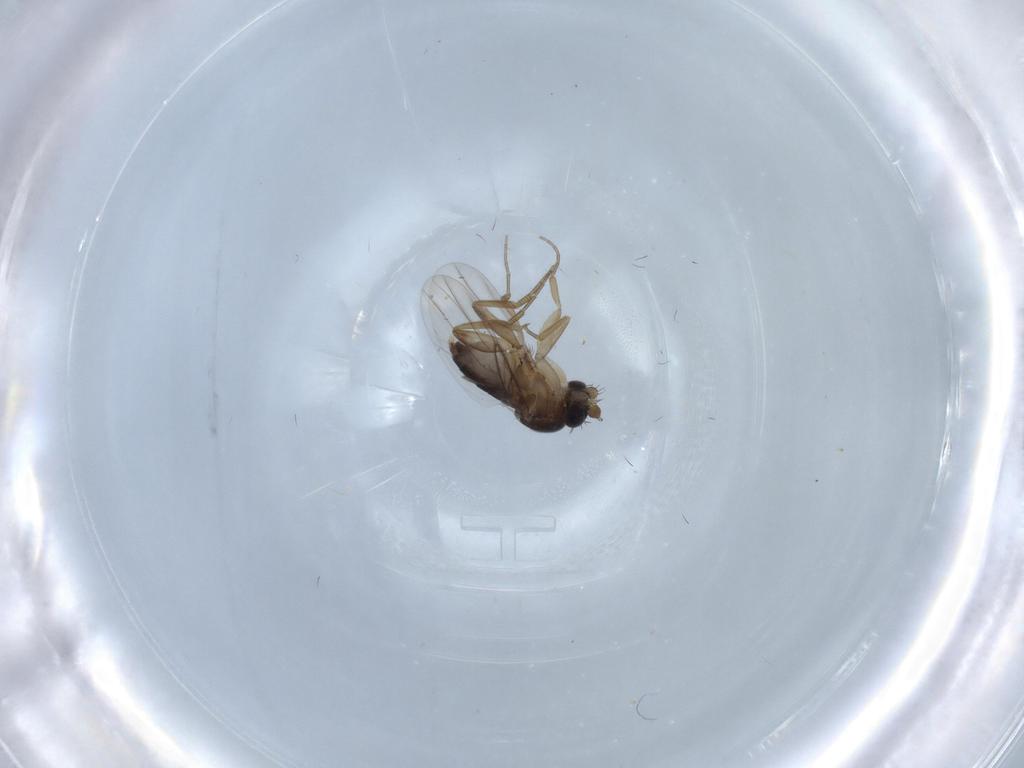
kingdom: Animalia
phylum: Arthropoda
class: Insecta
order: Diptera
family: Phoridae
